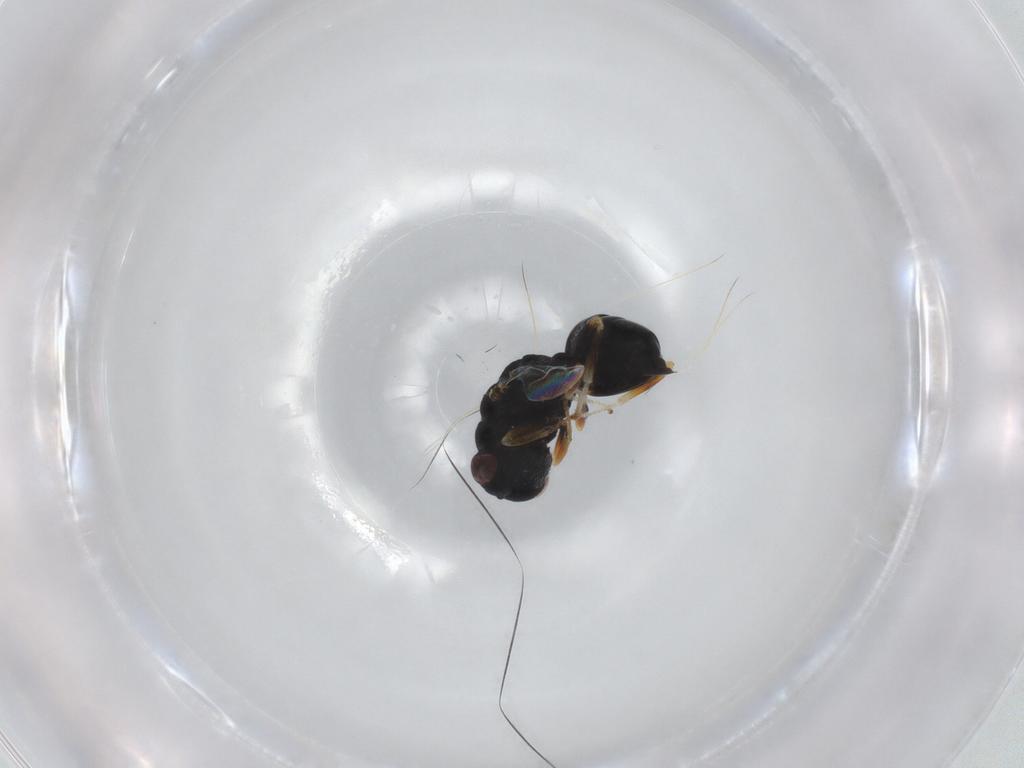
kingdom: Animalia
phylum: Arthropoda
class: Insecta
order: Hymenoptera
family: Eurytomidae
